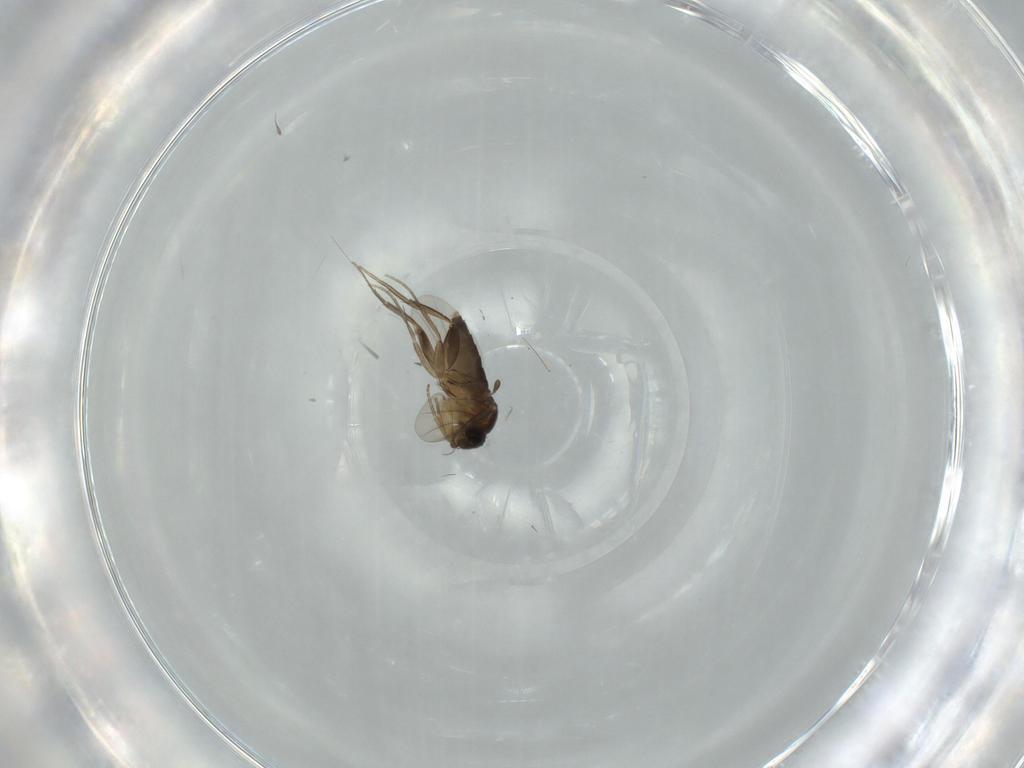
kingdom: Animalia
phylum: Arthropoda
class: Insecta
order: Diptera
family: Phoridae
